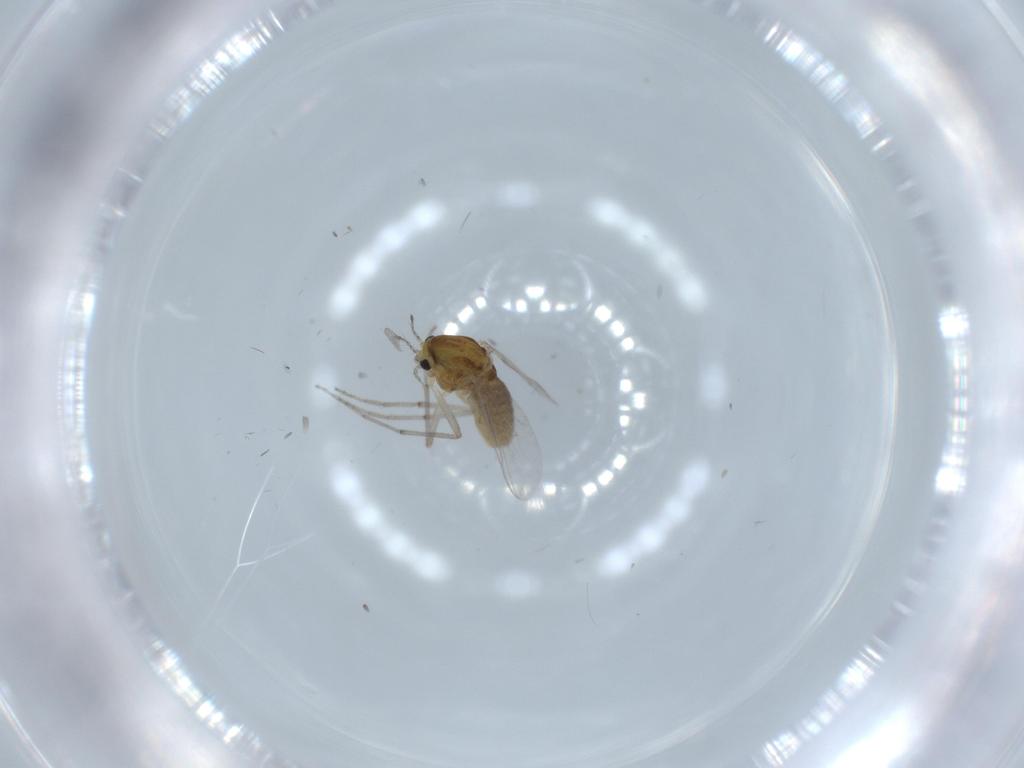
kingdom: Animalia
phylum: Arthropoda
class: Insecta
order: Diptera
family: Chironomidae
